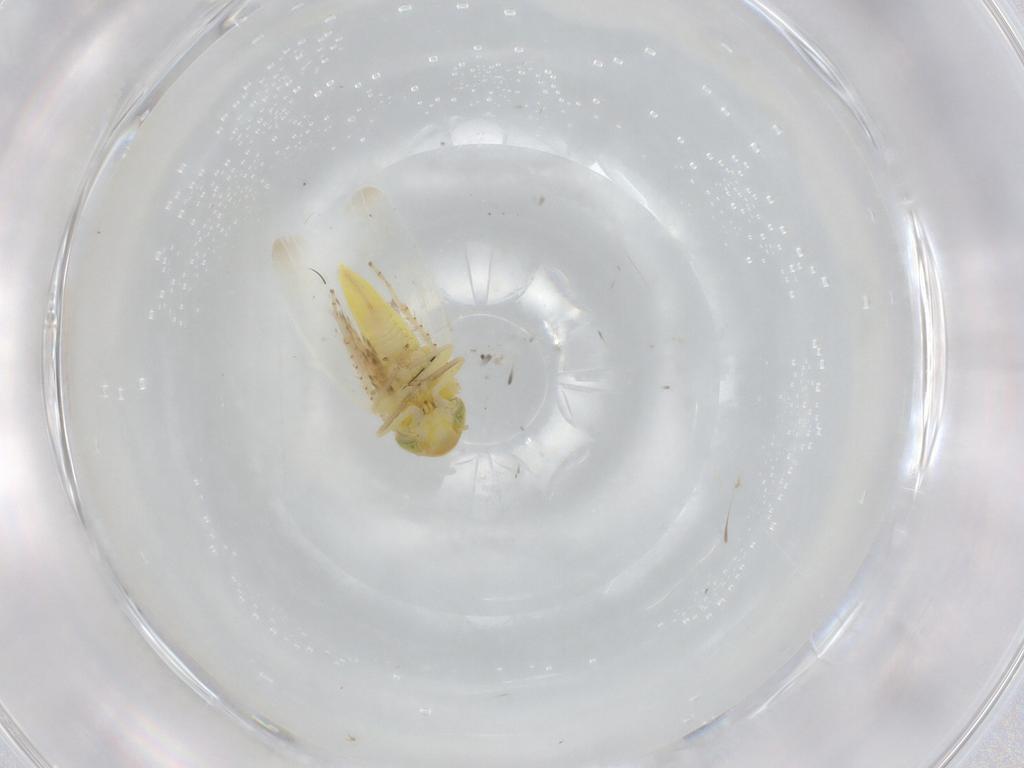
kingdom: Animalia
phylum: Arthropoda
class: Insecta
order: Hemiptera
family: Cicadellidae
